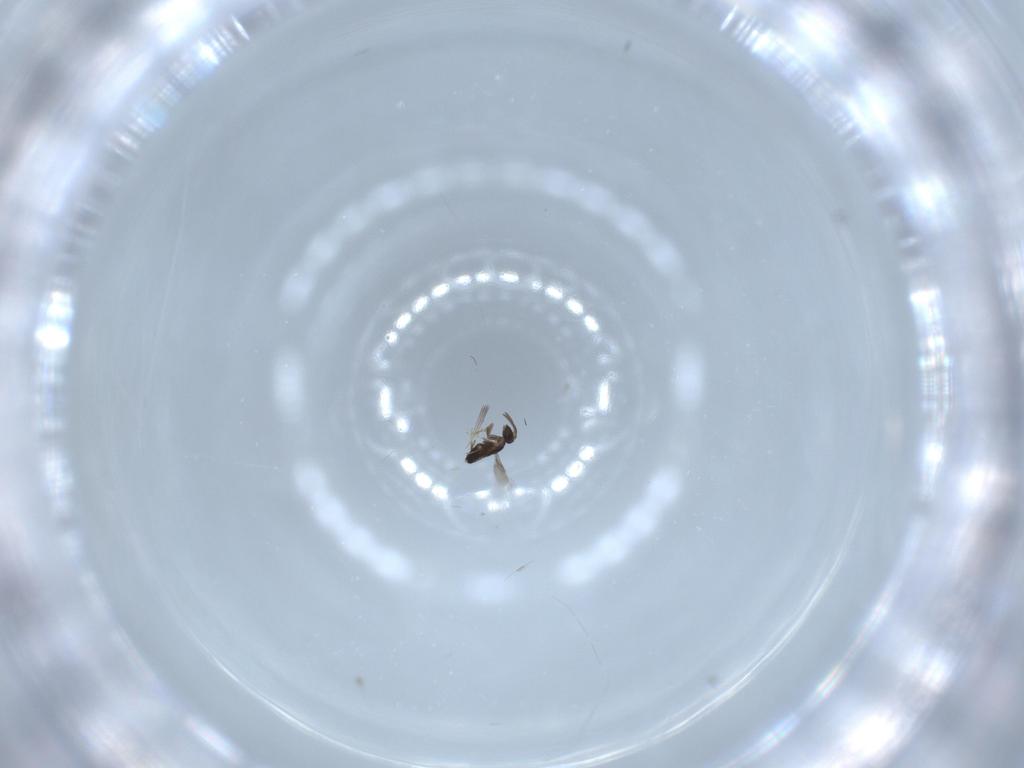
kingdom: Animalia
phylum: Arthropoda
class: Insecta
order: Hymenoptera
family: Signiphoridae
